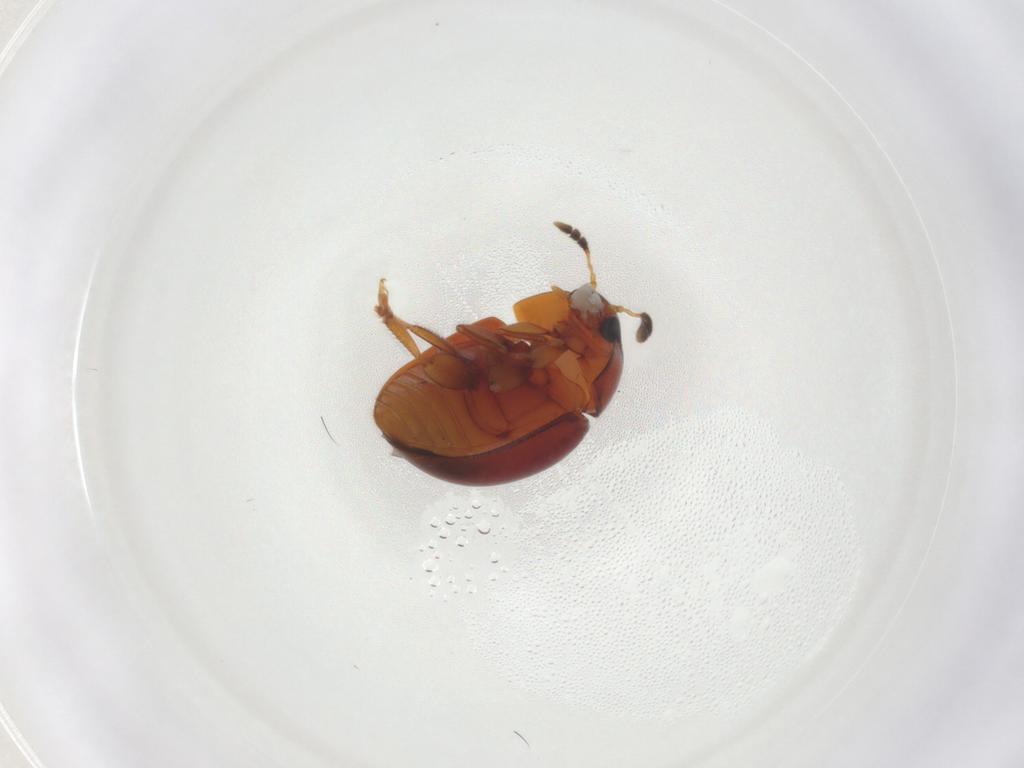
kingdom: Animalia
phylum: Arthropoda
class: Insecta
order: Coleoptera
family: Phalacridae
